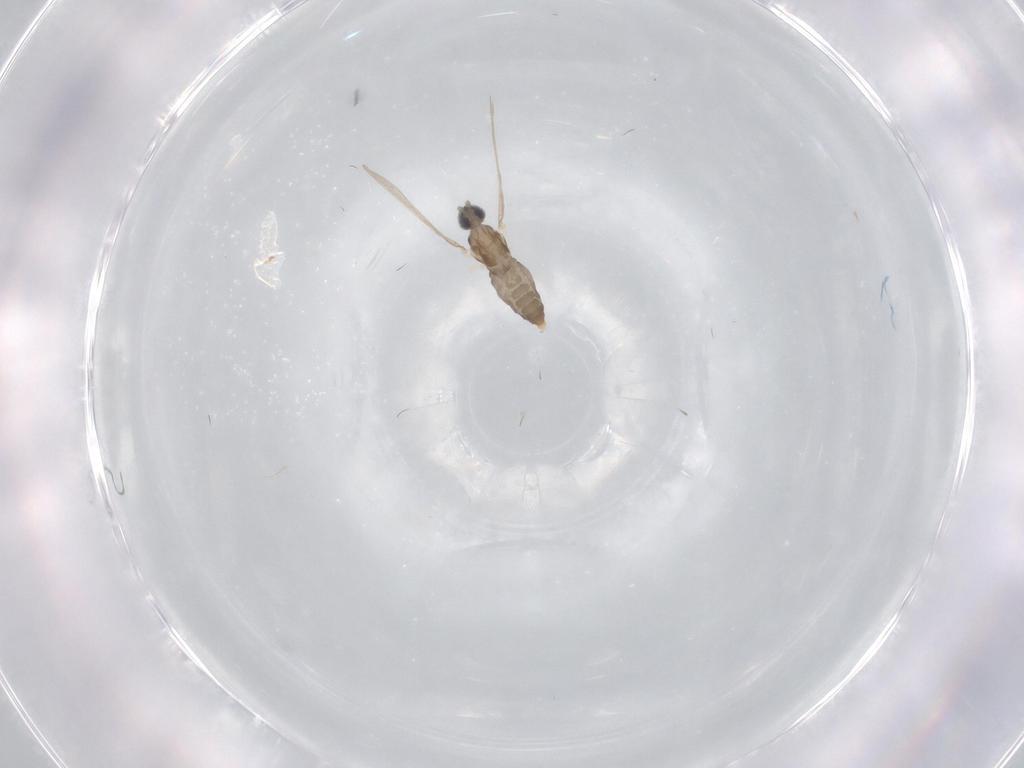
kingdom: Animalia
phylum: Arthropoda
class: Insecta
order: Diptera
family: Cecidomyiidae
